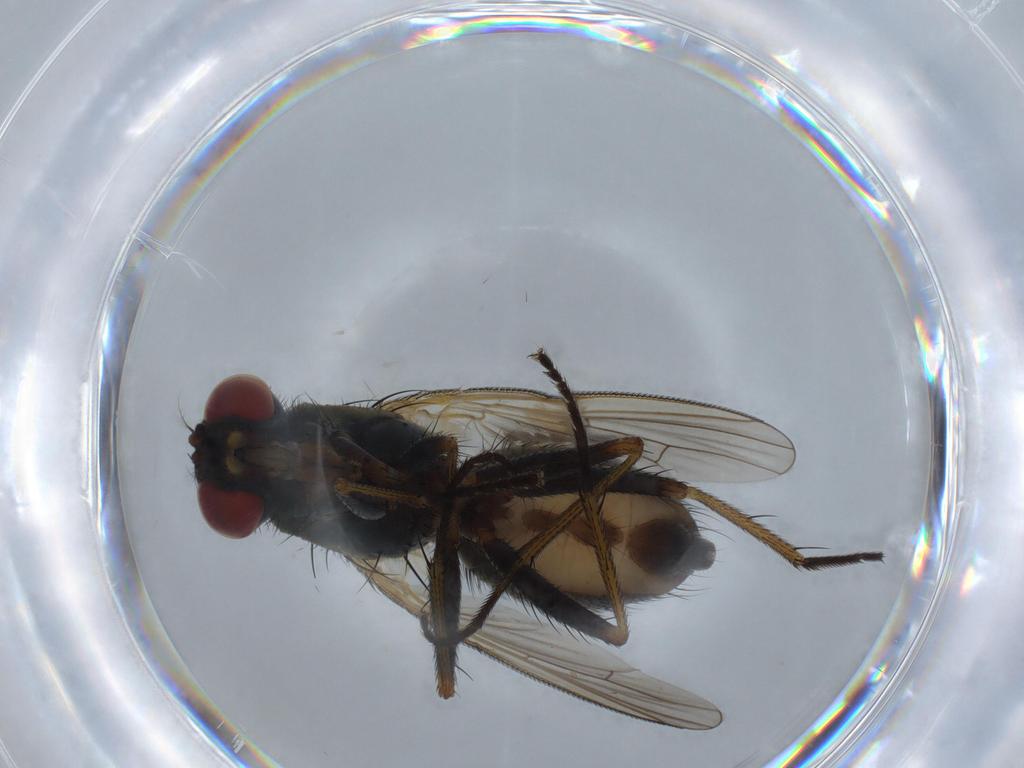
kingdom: Animalia
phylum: Arthropoda
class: Insecta
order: Diptera
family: Muscidae
